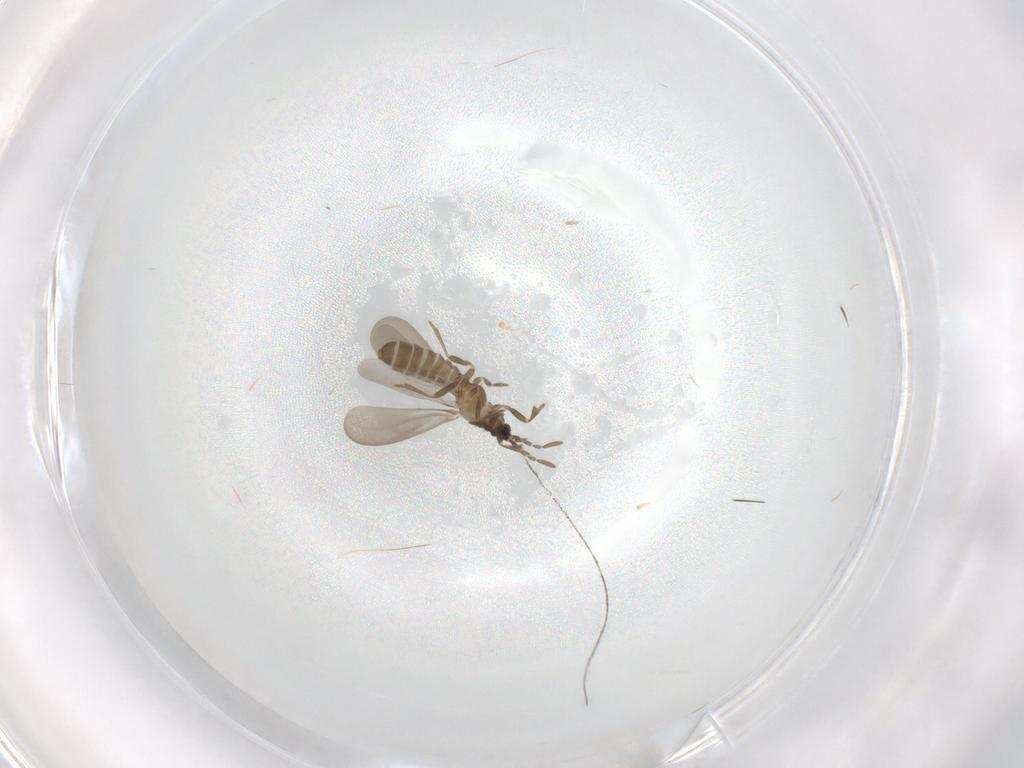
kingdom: Animalia
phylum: Arthropoda
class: Insecta
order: Hemiptera
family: Enicocephalidae
